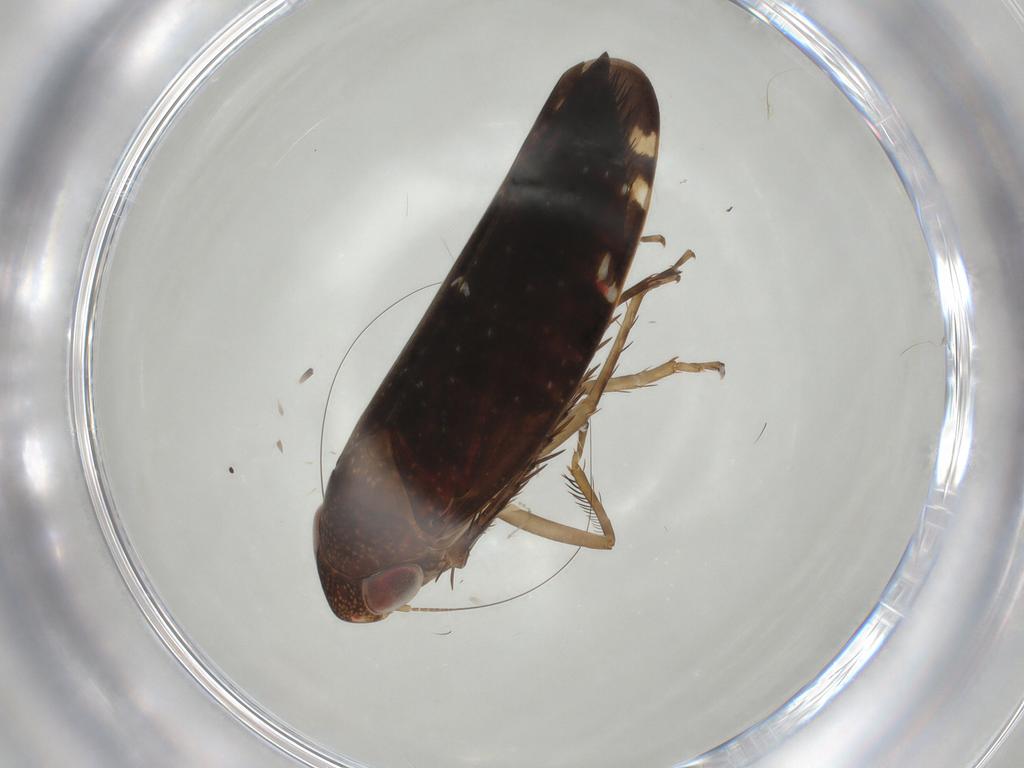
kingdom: Animalia
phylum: Arthropoda
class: Insecta
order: Hemiptera
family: Cicadellidae
